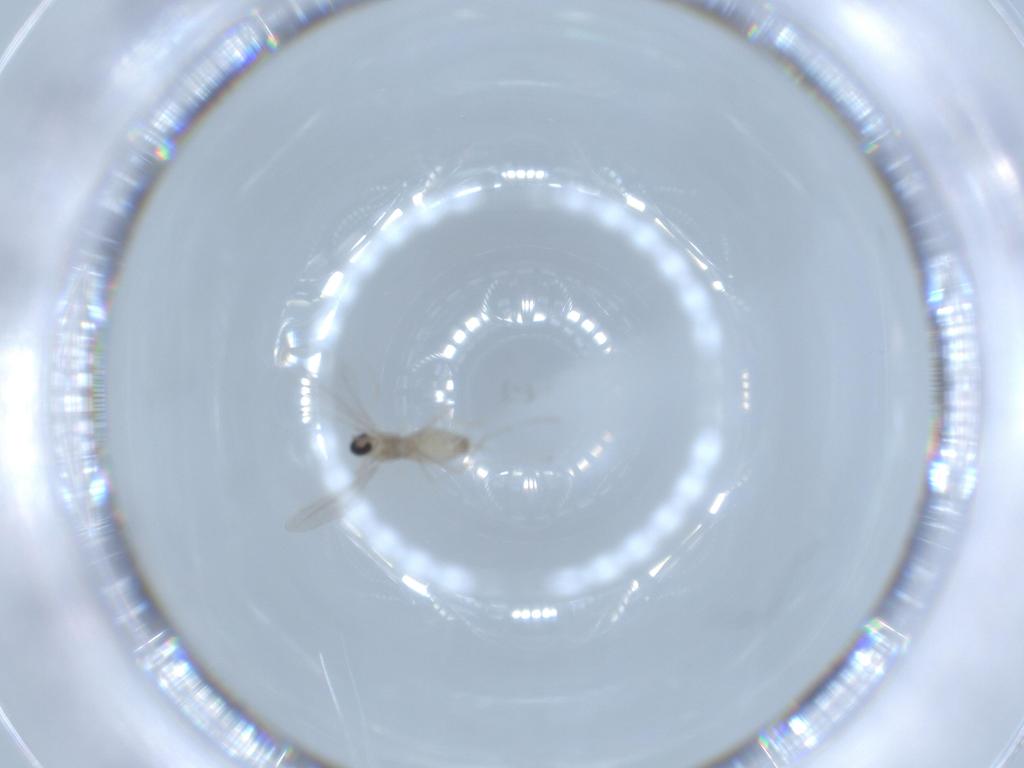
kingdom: Animalia
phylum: Arthropoda
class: Insecta
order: Diptera
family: Cecidomyiidae
